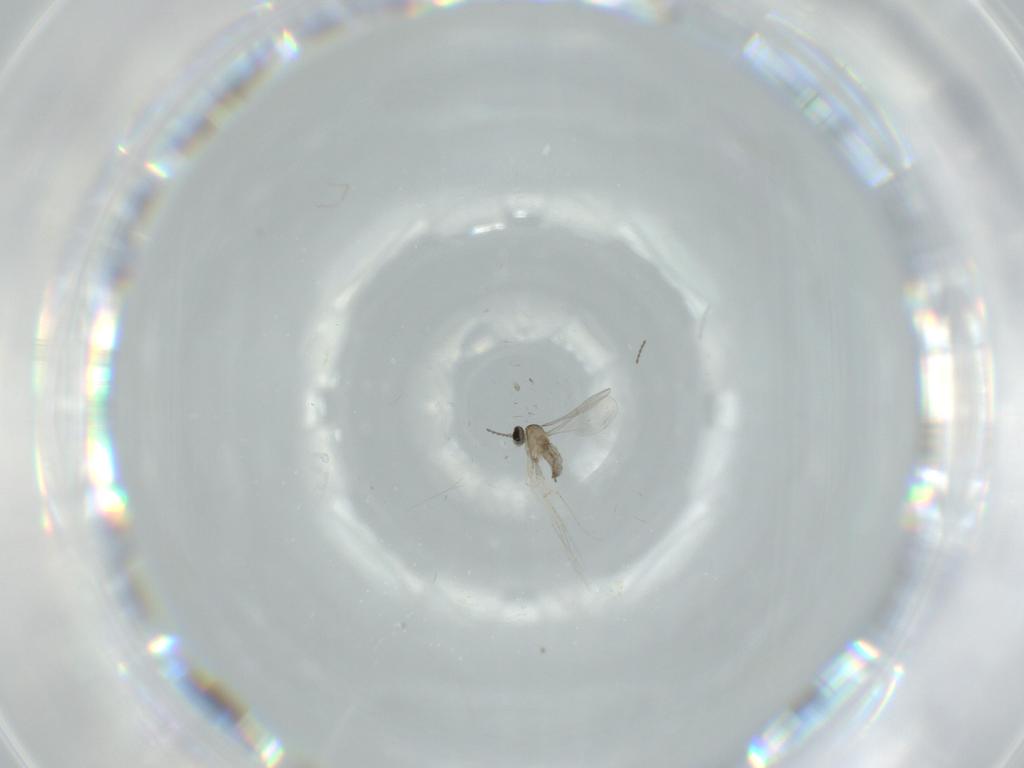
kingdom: Animalia
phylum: Arthropoda
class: Insecta
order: Diptera
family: Cecidomyiidae
